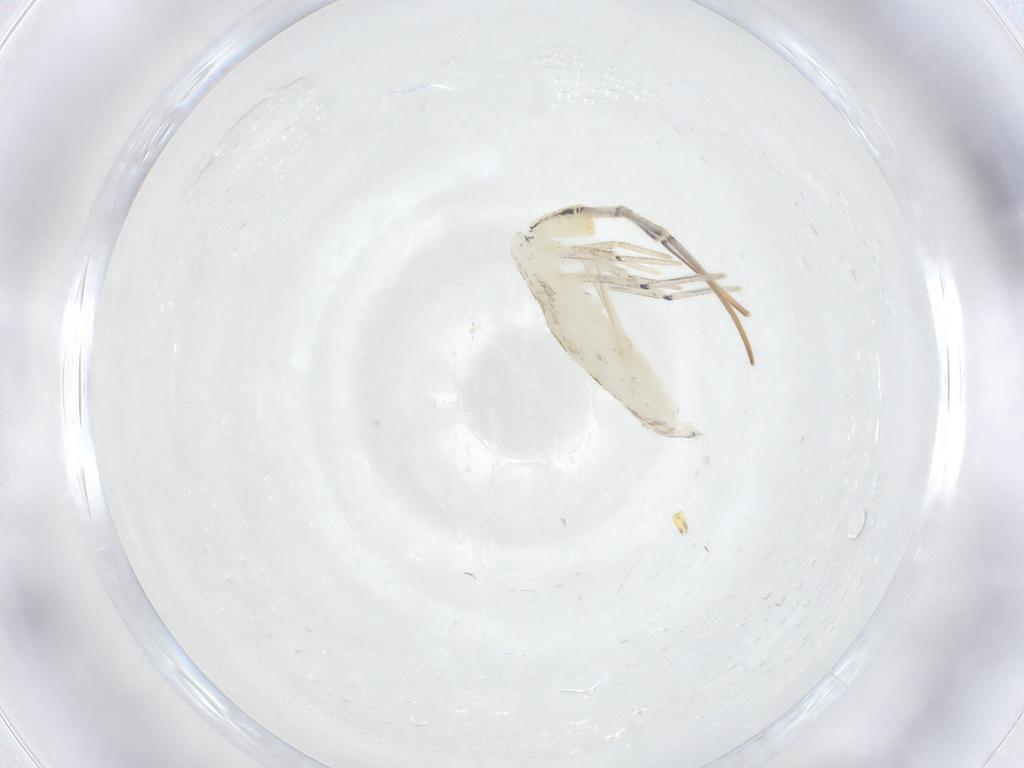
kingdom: Animalia
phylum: Arthropoda
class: Collembola
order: Entomobryomorpha
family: Entomobryidae
